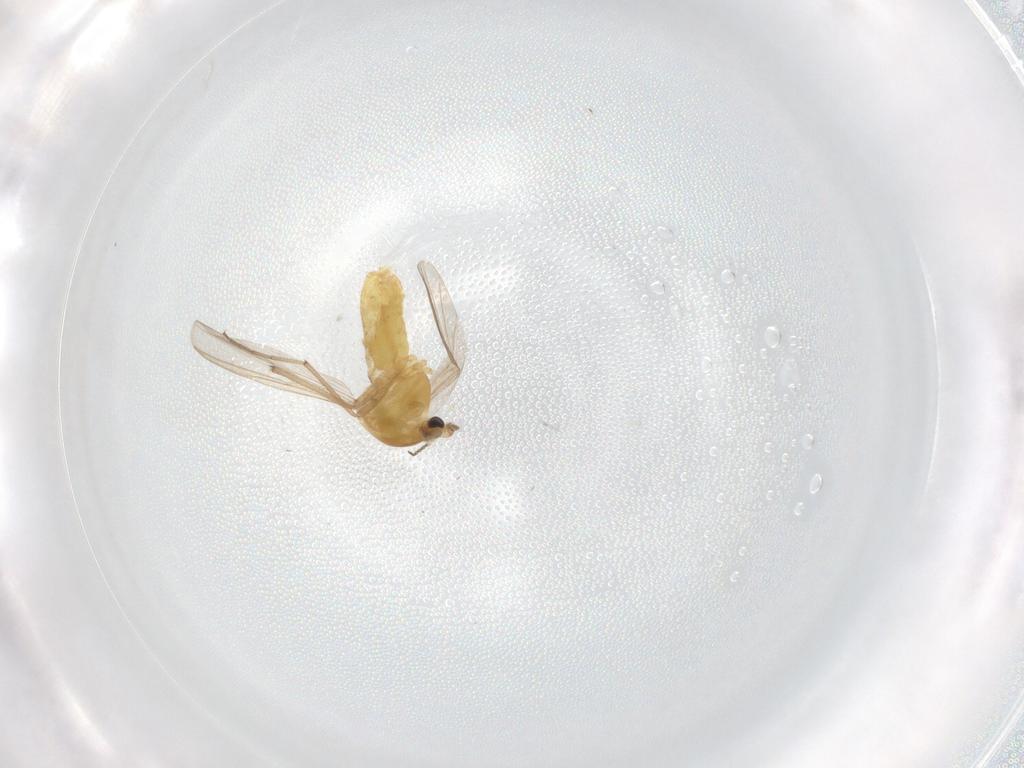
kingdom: Animalia
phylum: Arthropoda
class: Insecta
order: Diptera
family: Chironomidae
